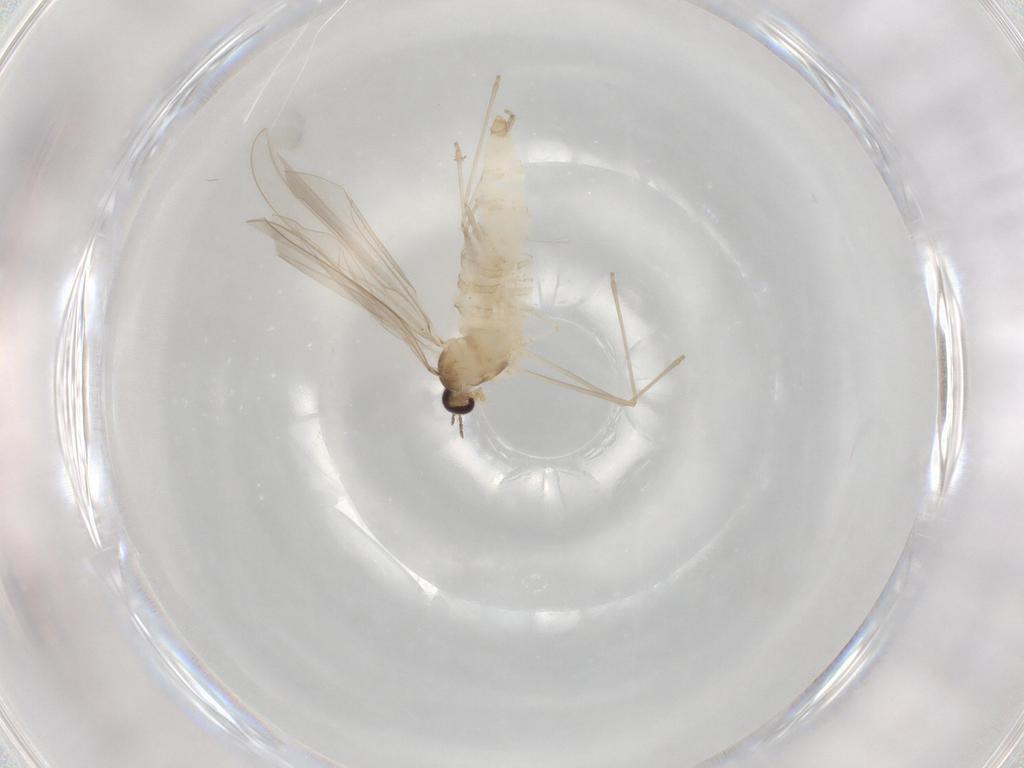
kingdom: Animalia
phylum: Arthropoda
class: Insecta
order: Diptera
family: Cecidomyiidae
